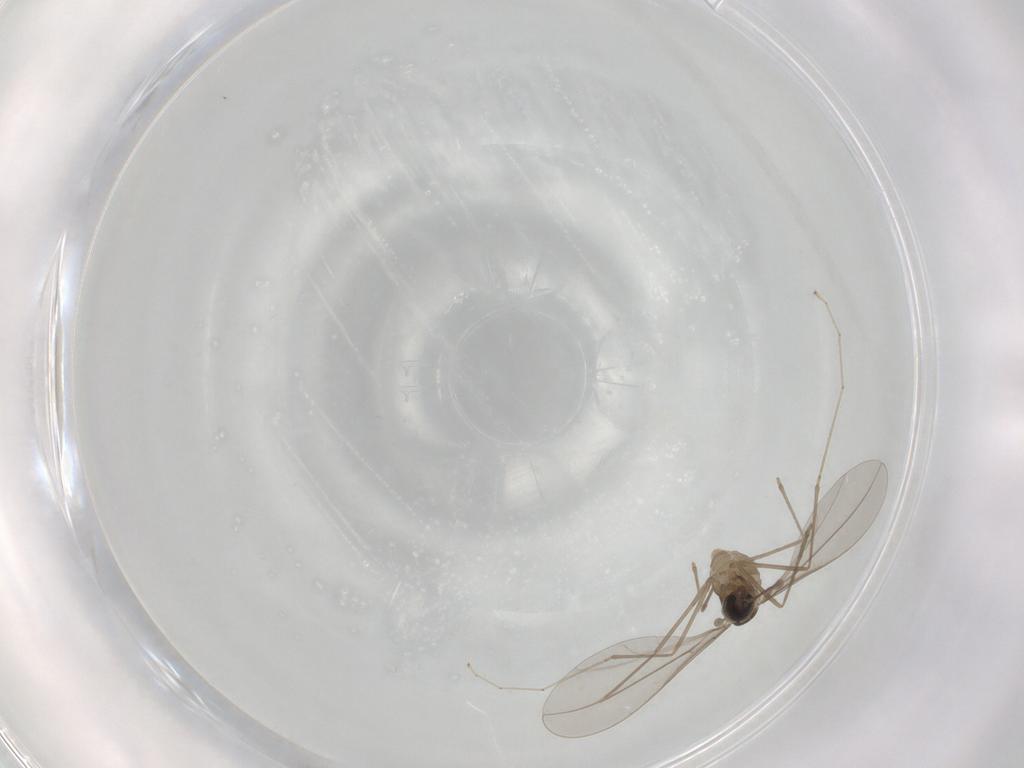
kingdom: Animalia
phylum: Arthropoda
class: Insecta
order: Diptera
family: Cecidomyiidae
